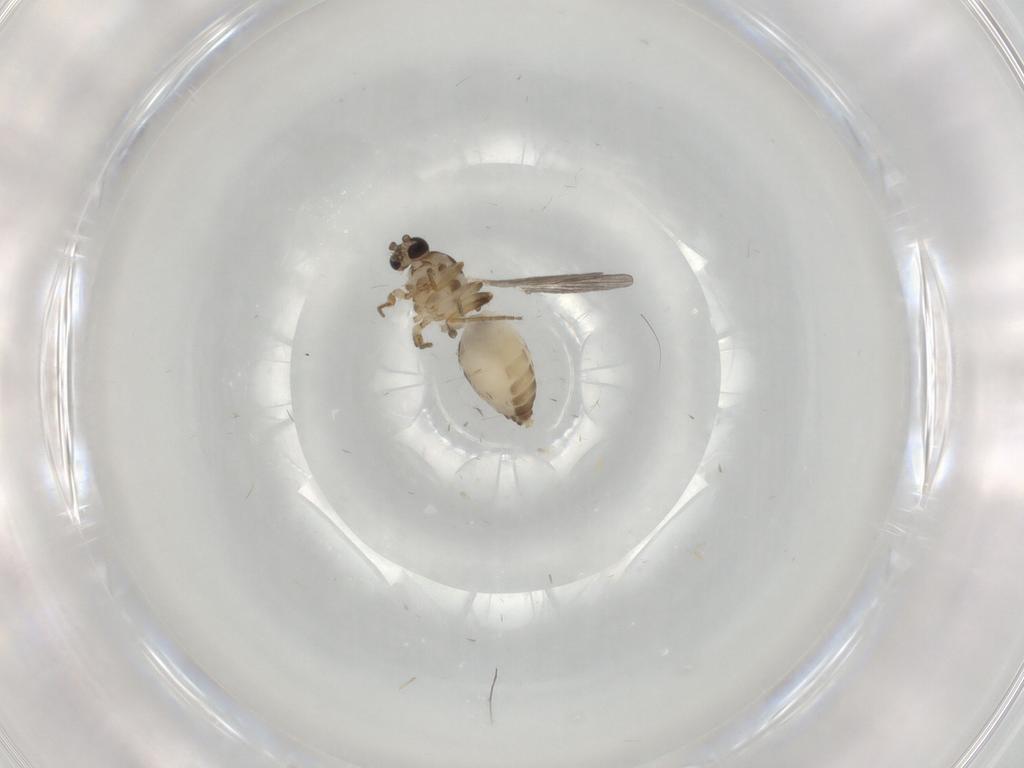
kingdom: Animalia
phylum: Arthropoda
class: Insecta
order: Diptera
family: Ceratopogonidae
